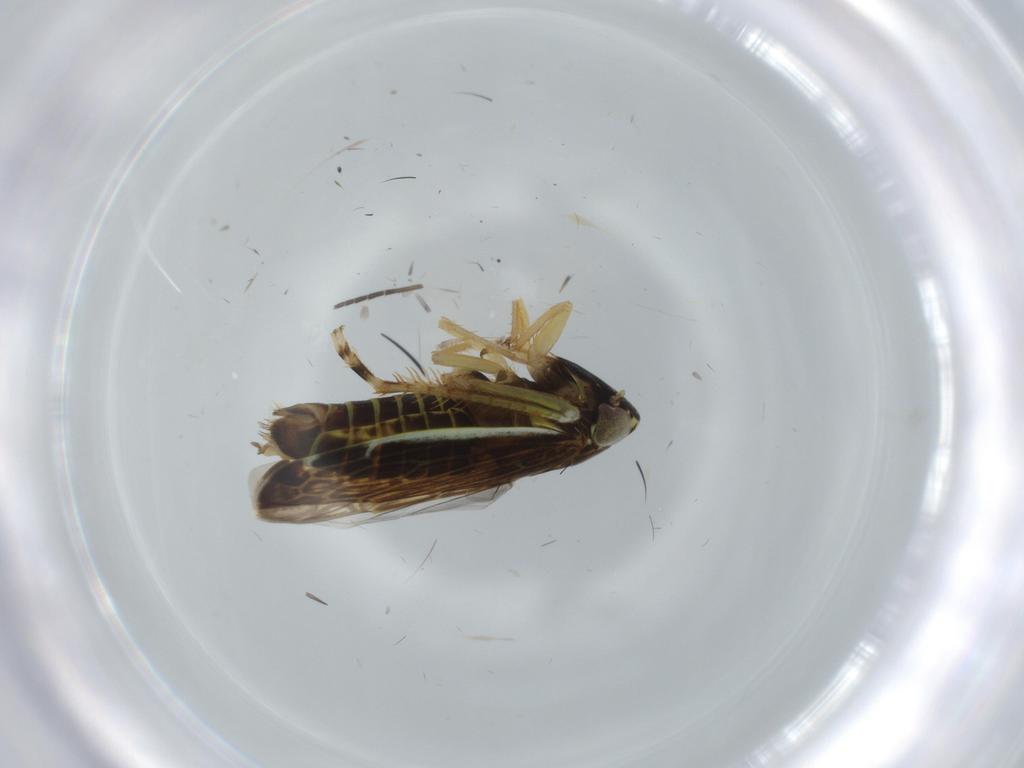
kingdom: Animalia
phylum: Arthropoda
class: Insecta
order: Hemiptera
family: Cicadellidae
